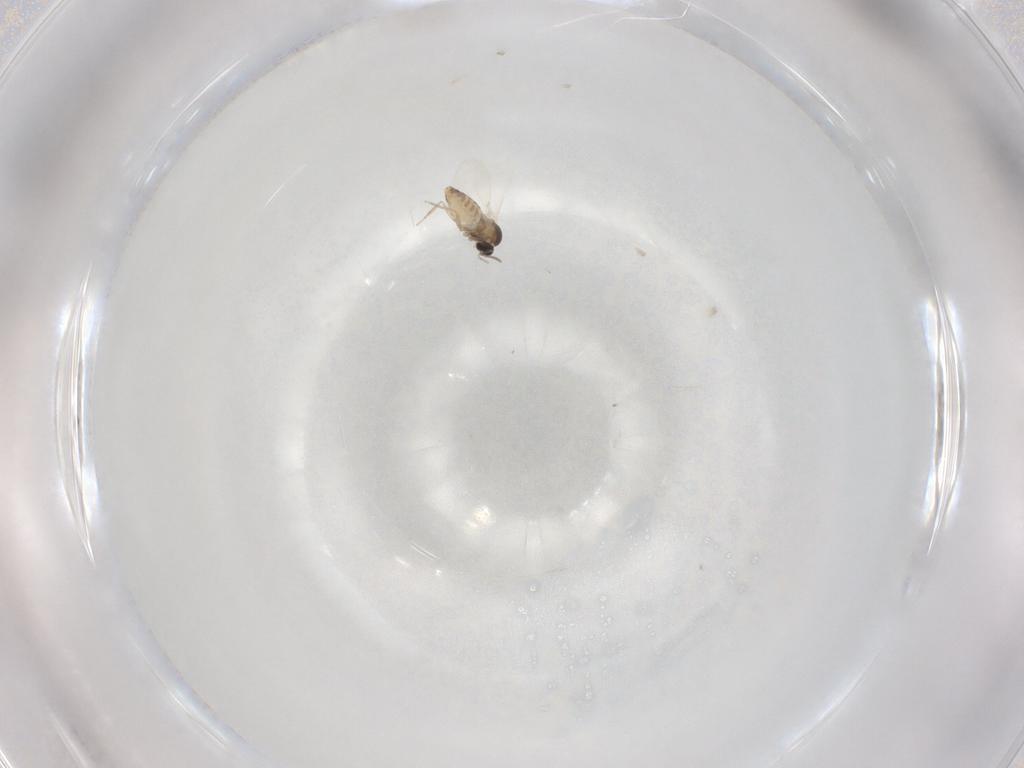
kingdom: Animalia
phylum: Arthropoda
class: Insecta
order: Diptera
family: Cecidomyiidae
